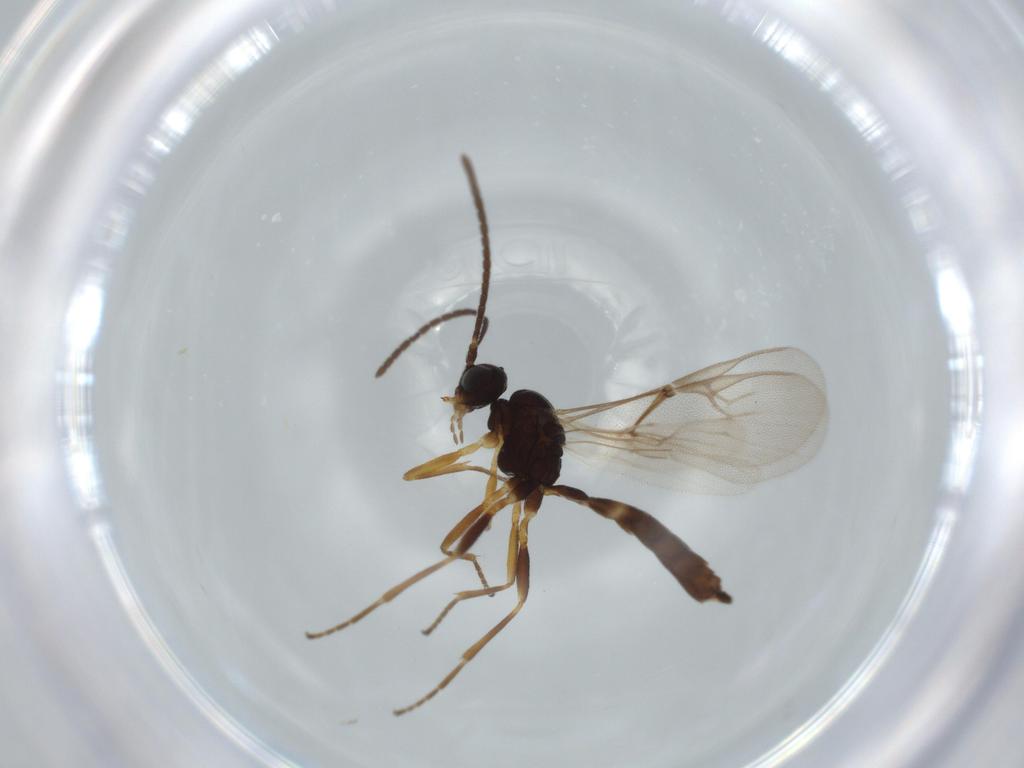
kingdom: Animalia
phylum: Arthropoda
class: Insecta
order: Hymenoptera
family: Braconidae
